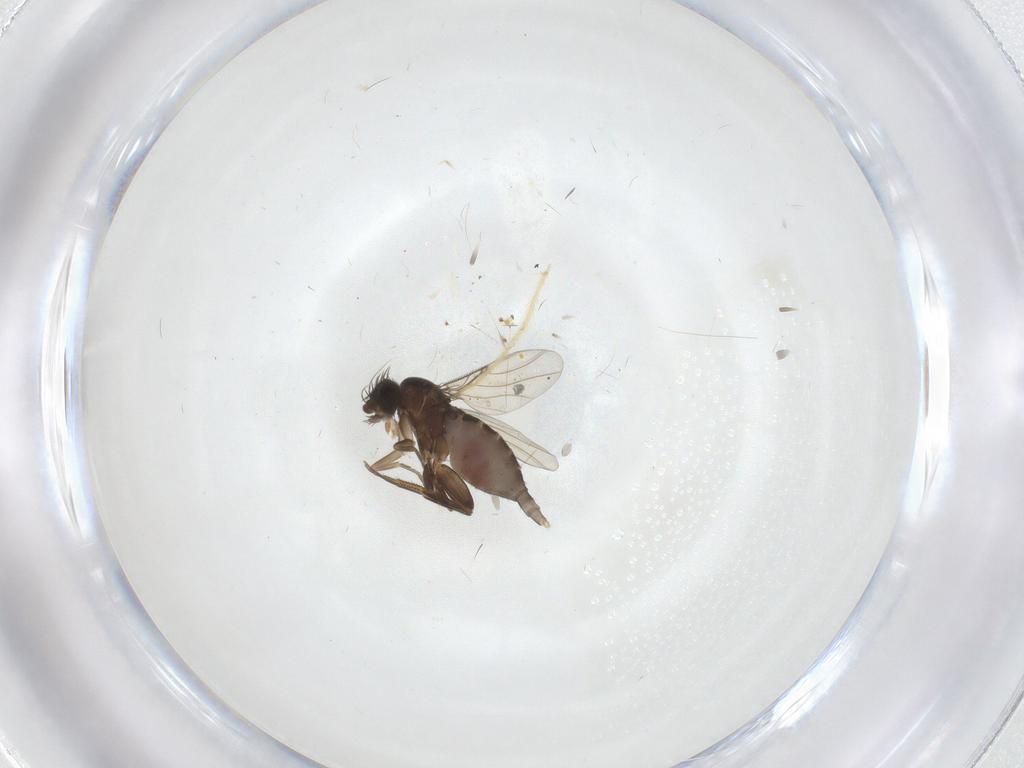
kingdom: Animalia
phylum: Arthropoda
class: Insecta
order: Diptera
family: Phoridae
